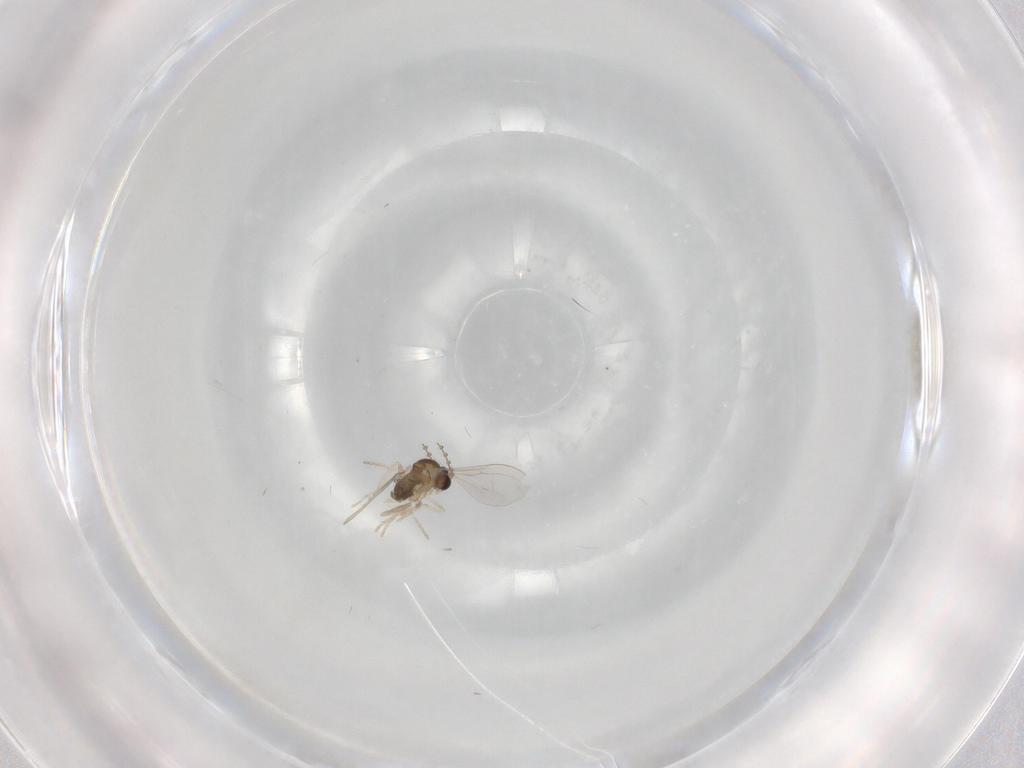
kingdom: Animalia
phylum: Arthropoda
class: Insecta
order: Diptera
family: Cecidomyiidae
